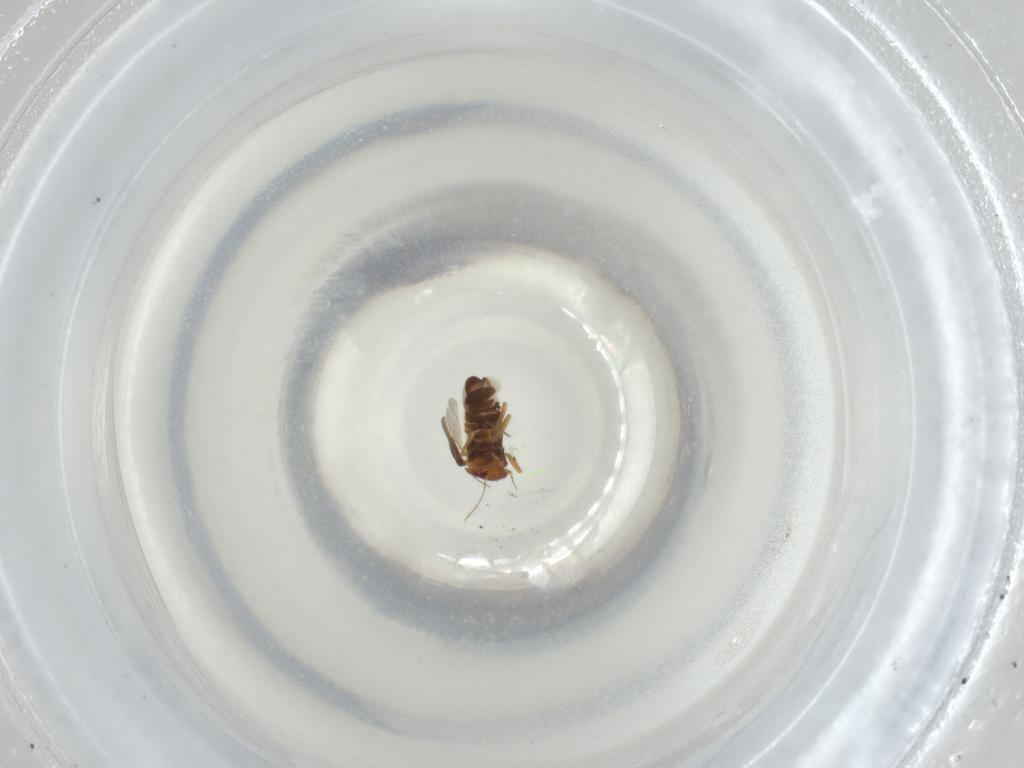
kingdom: Animalia
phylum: Arthropoda
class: Insecta
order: Hemiptera
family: Schizopteridae
